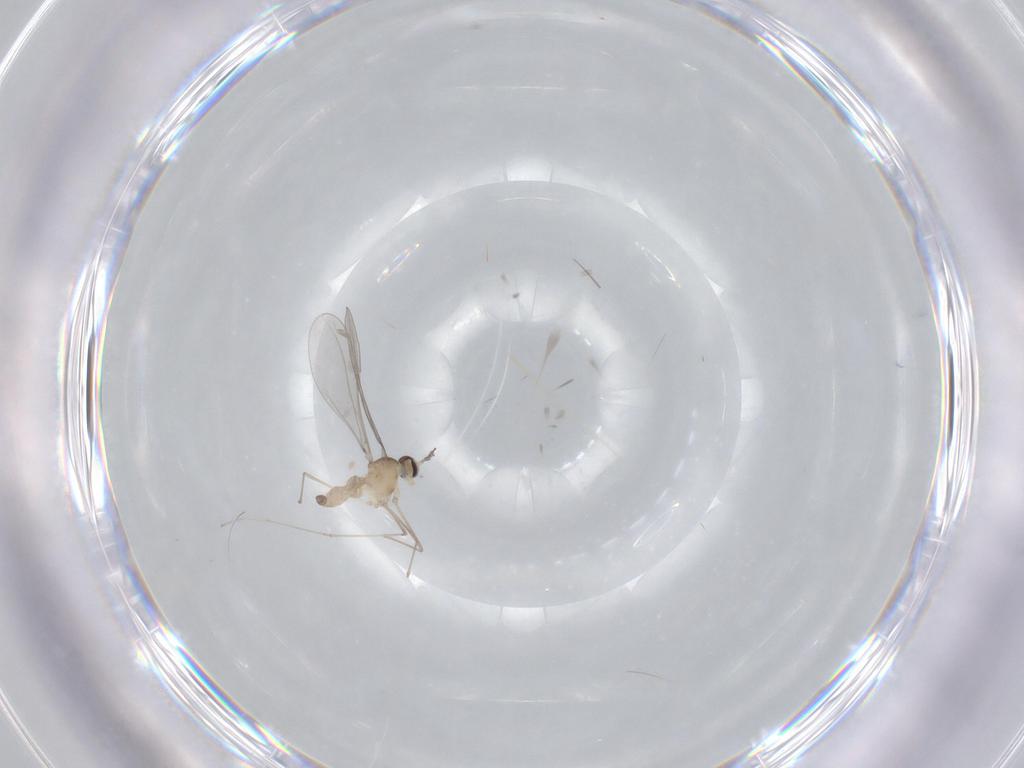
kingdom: Animalia
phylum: Arthropoda
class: Insecta
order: Diptera
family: Cecidomyiidae
